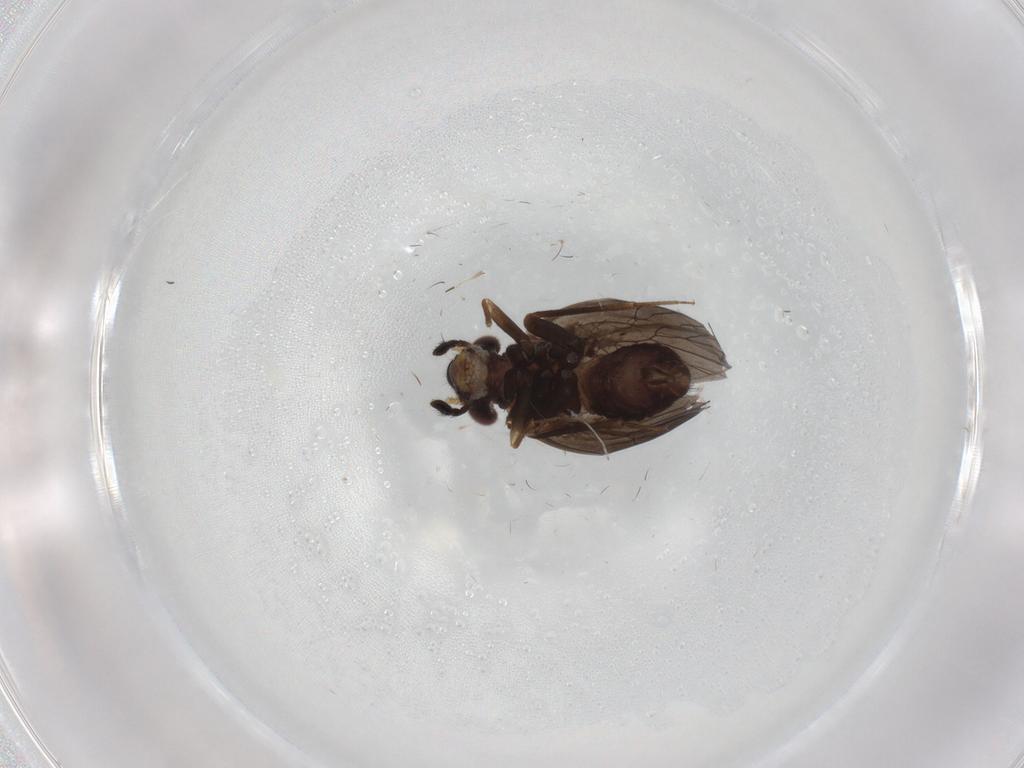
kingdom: Animalia
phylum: Arthropoda
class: Insecta
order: Psocodea
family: Lepidopsocidae
